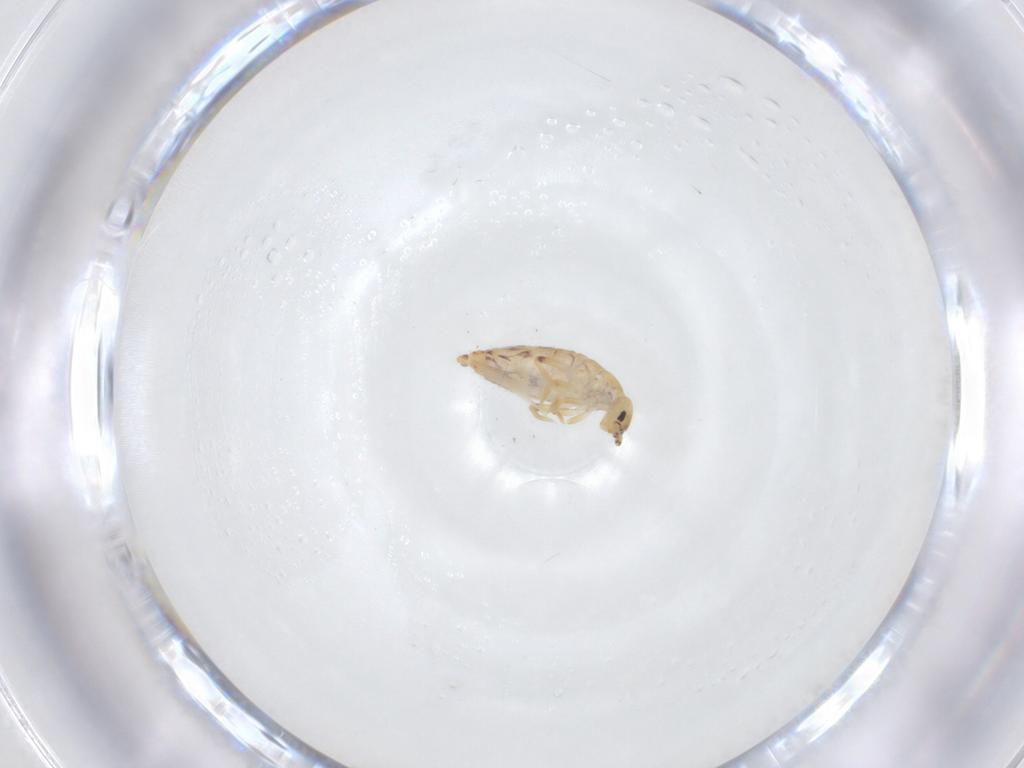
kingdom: Animalia
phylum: Arthropoda
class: Collembola
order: Entomobryomorpha
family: Entomobryidae
